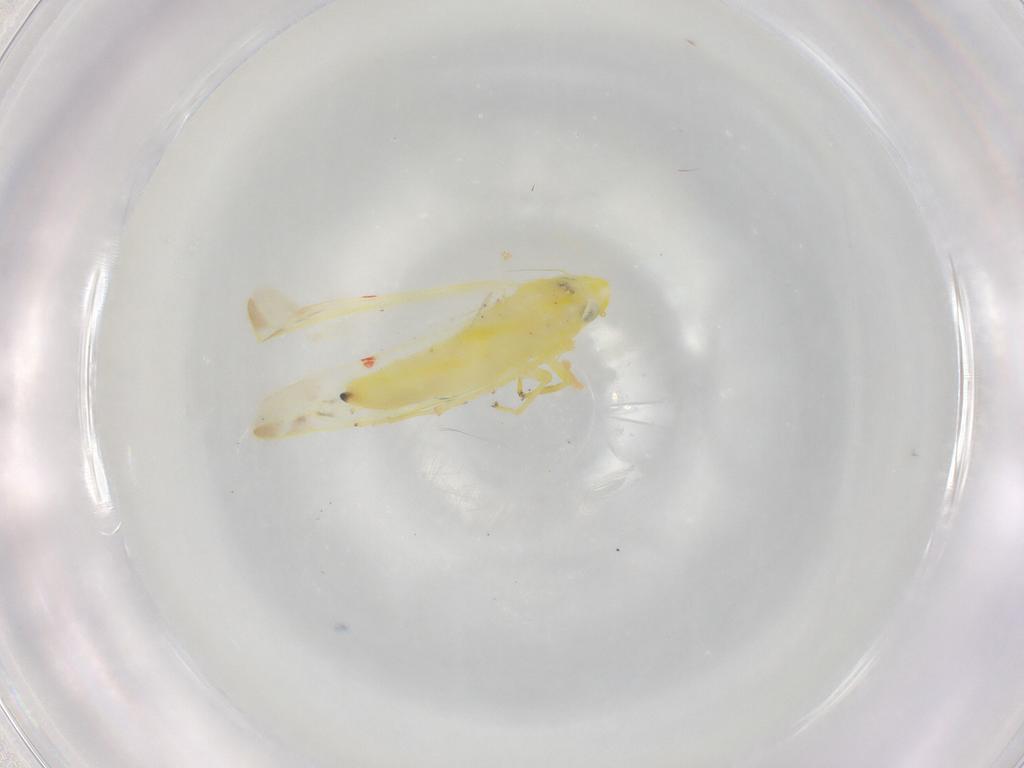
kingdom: Animalia
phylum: Arthropoda
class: Insecta
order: Hemiptera
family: Cicadellidae
